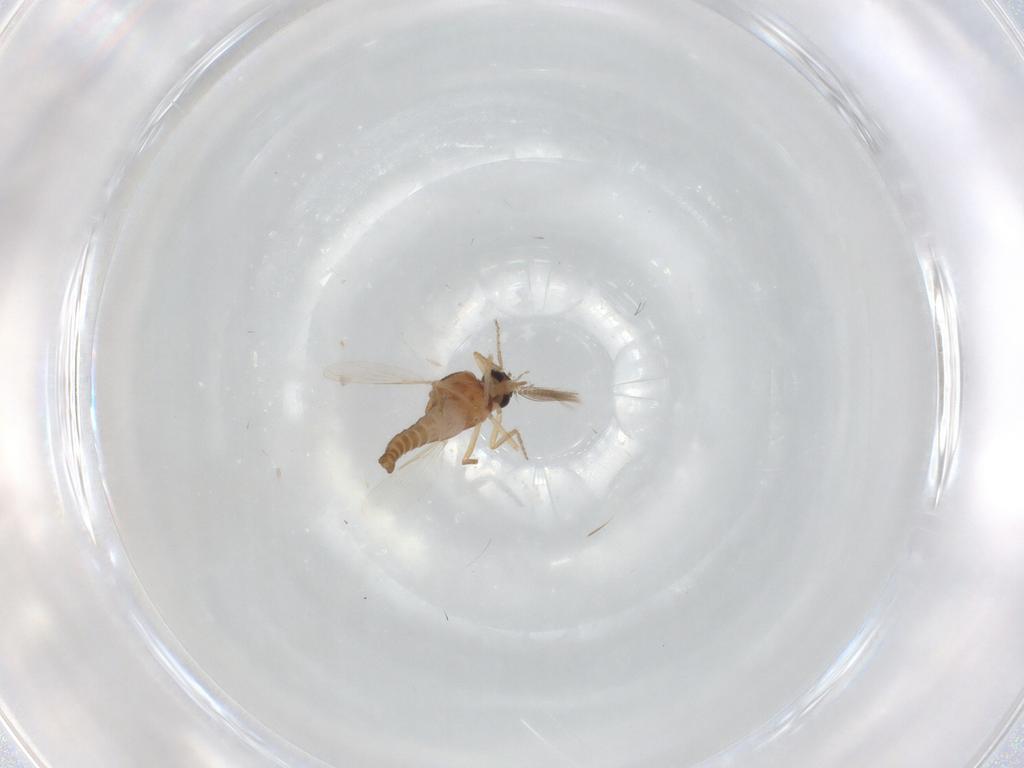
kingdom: Animalia
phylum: Arthropoda
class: Insecta
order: Diptera
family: Ceratopogonidae
